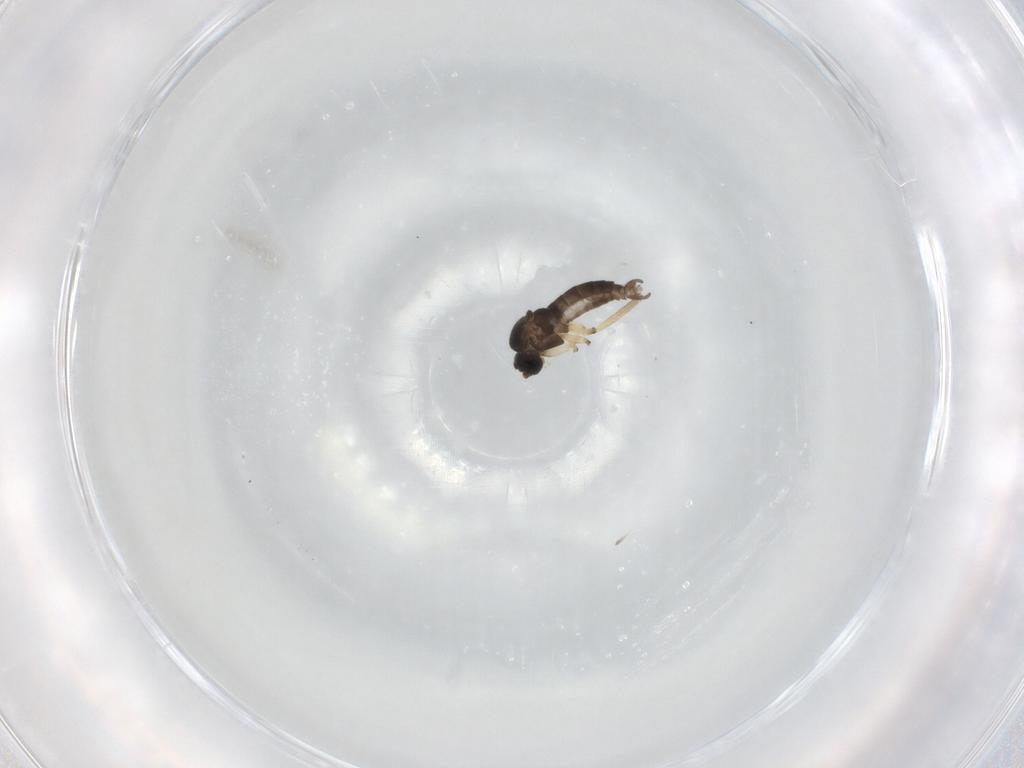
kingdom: Animalia
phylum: Arthropoda
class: Insecta
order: Diptera
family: Sciaridae
